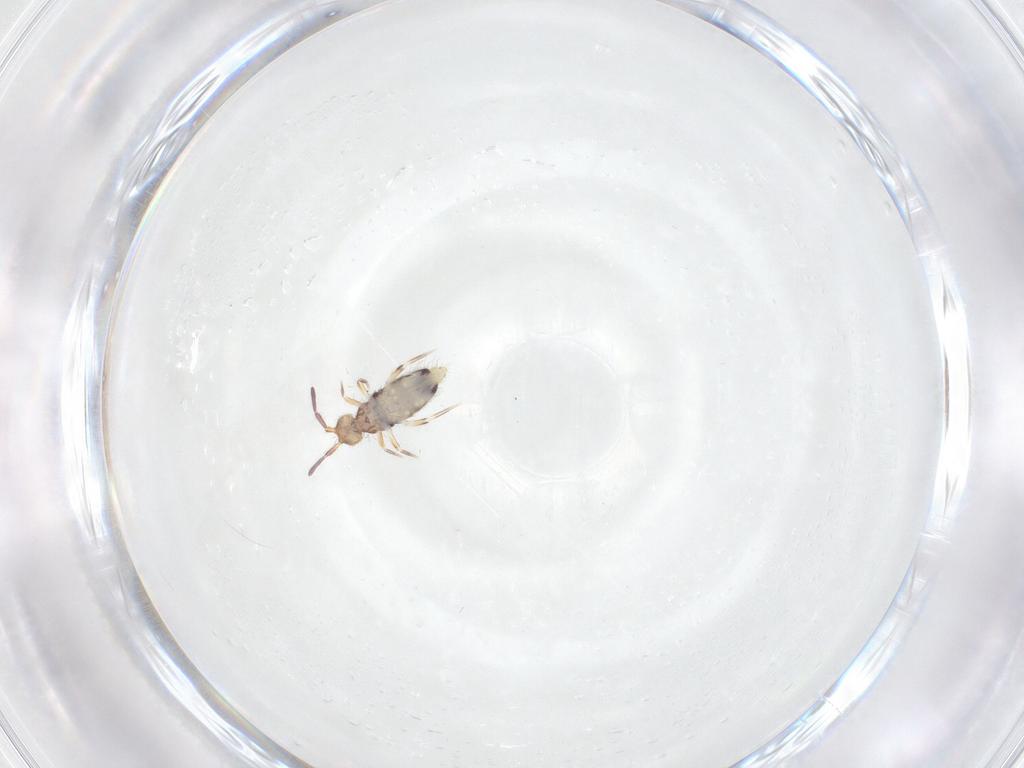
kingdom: Animalia
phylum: Arthropoda
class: Collembola
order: Entomobryomorpha
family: Entomobryidae
